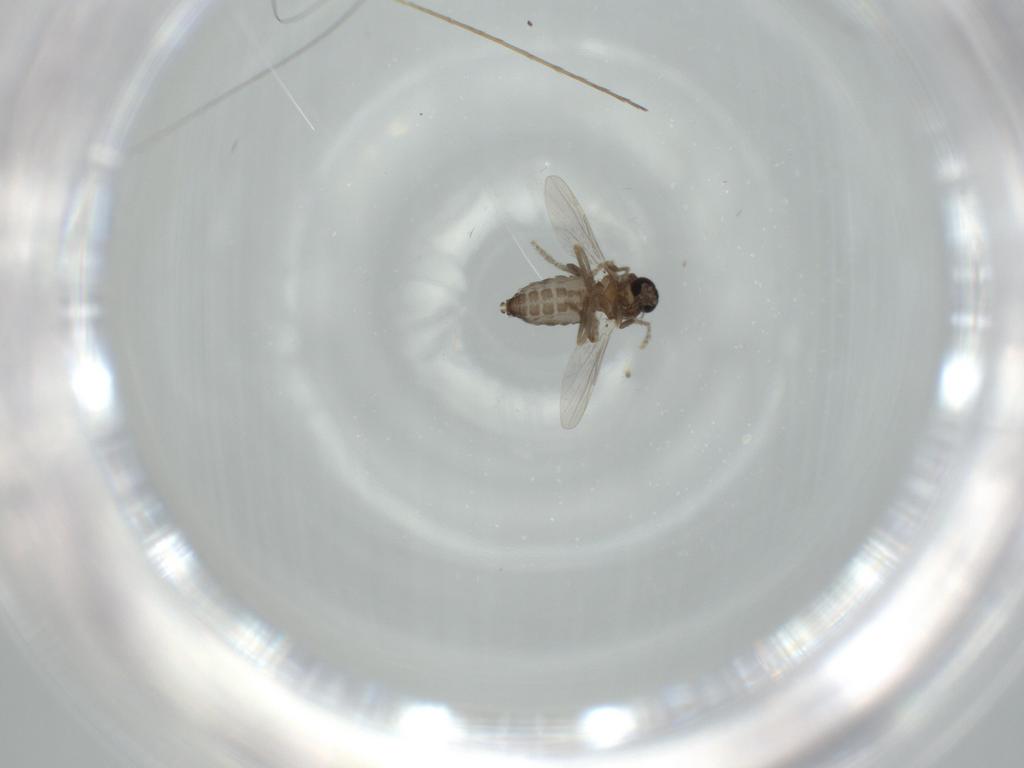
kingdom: Animalia
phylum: Arthropoda
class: Insecta
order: Diptera
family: Ceratopogonidae
